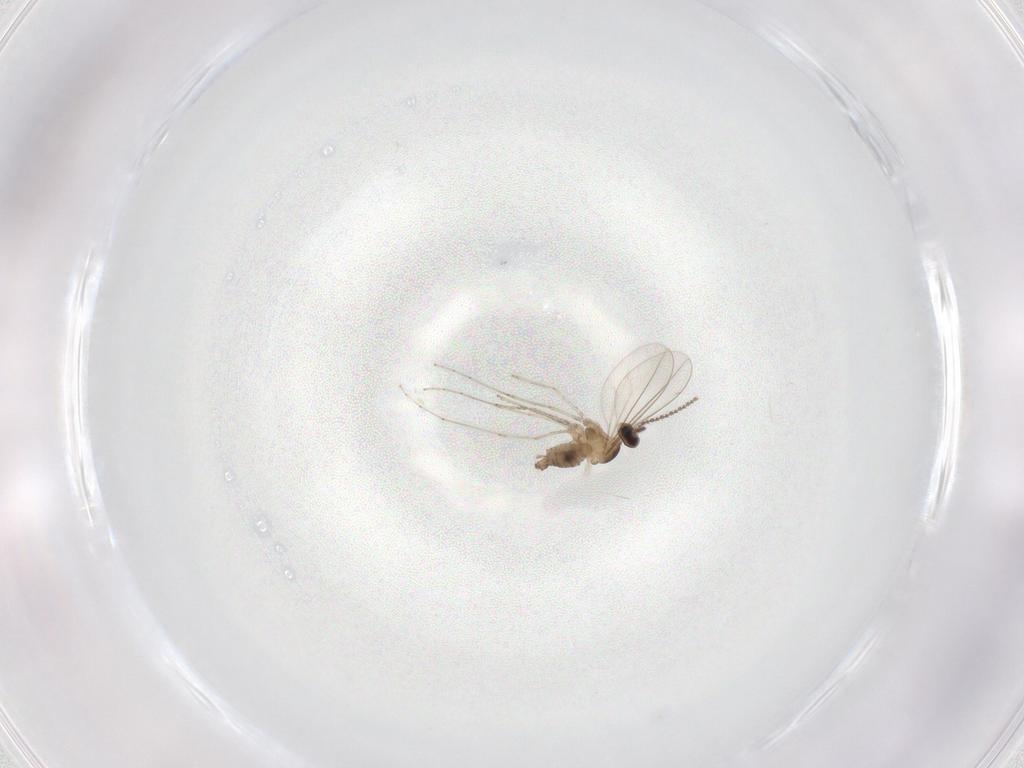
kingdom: Animalia
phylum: Arthropoda
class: Insecta
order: Diptera
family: Cecidomyiidae
